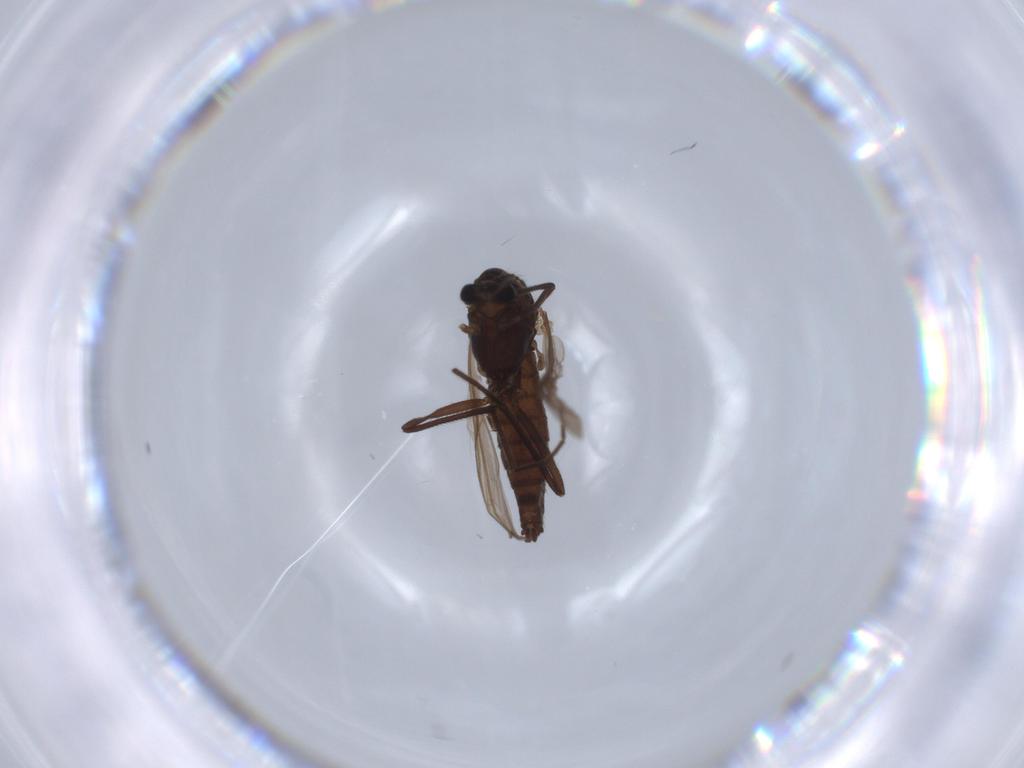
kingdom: Animalia
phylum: Arthropoda
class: Insecta
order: Diptera
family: Chironomidae
